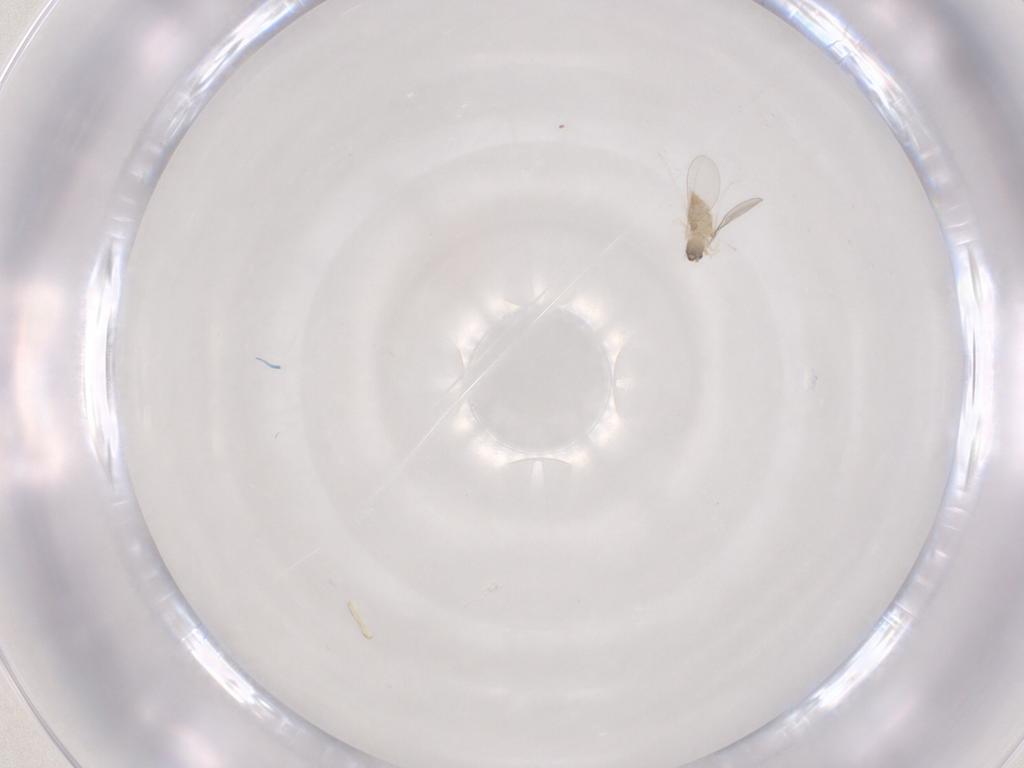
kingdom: Animalia
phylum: Arthropoda
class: Insecta
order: Diptera
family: Cecidomyiidae
